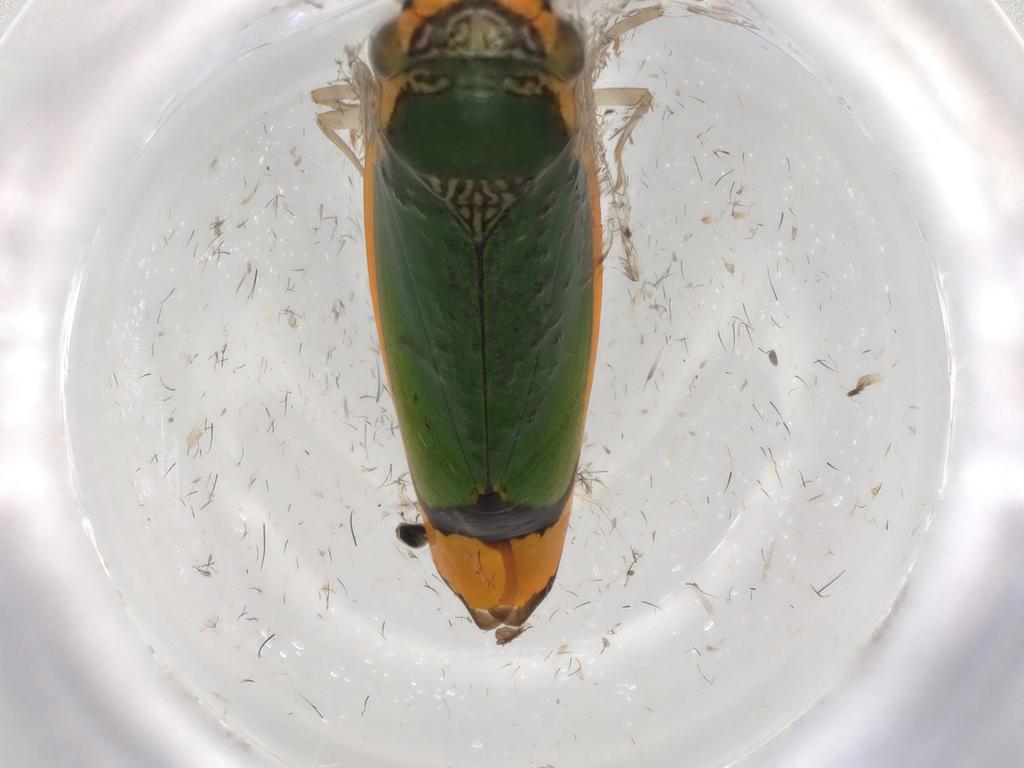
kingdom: Animalia
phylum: Arthropoda
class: Insecta
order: Hemiptera
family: Cicadellidae
